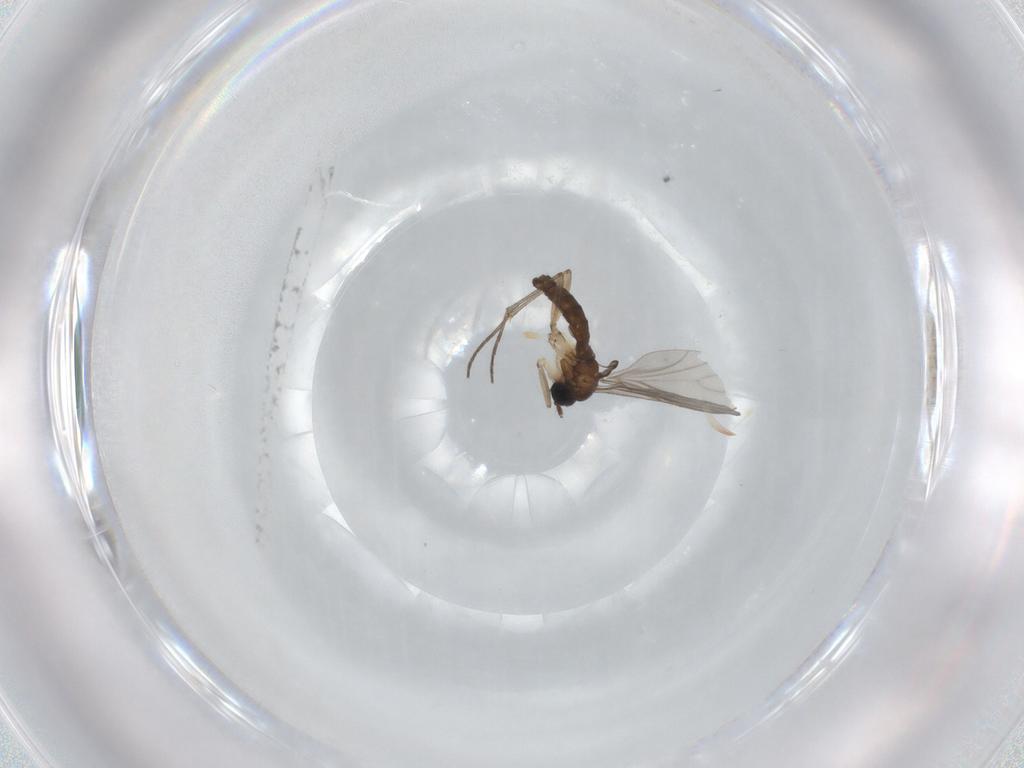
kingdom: Animalia
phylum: Arthropoda
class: Insecta
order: Diptera
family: Sciaridae
